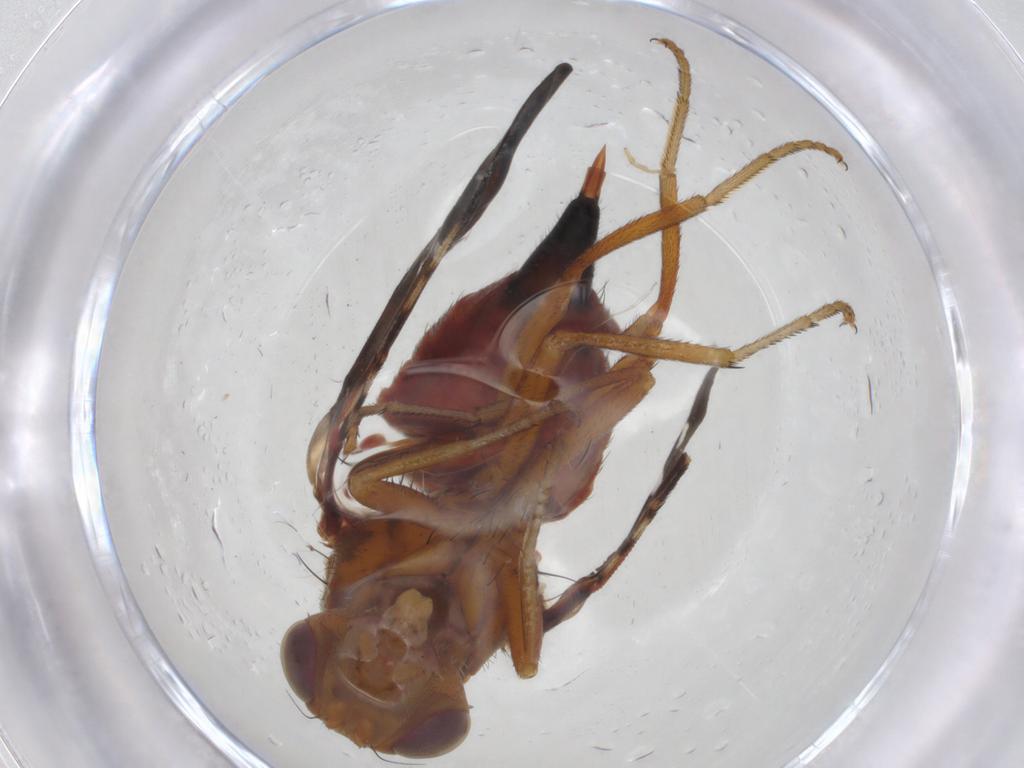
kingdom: Animalia
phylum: Arthropoda
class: Insecta
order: Diptera
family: Tephritidae
